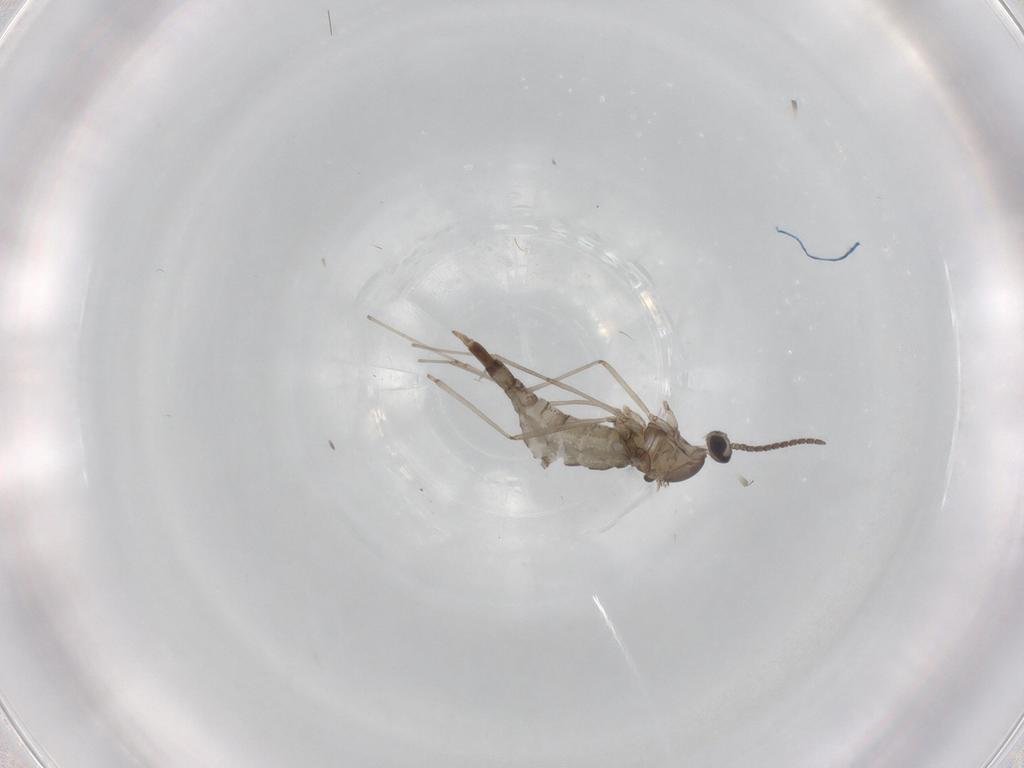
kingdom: Animalia
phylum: Arthropoda
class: Insecta
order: Diptera
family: Cecidomyiidae
